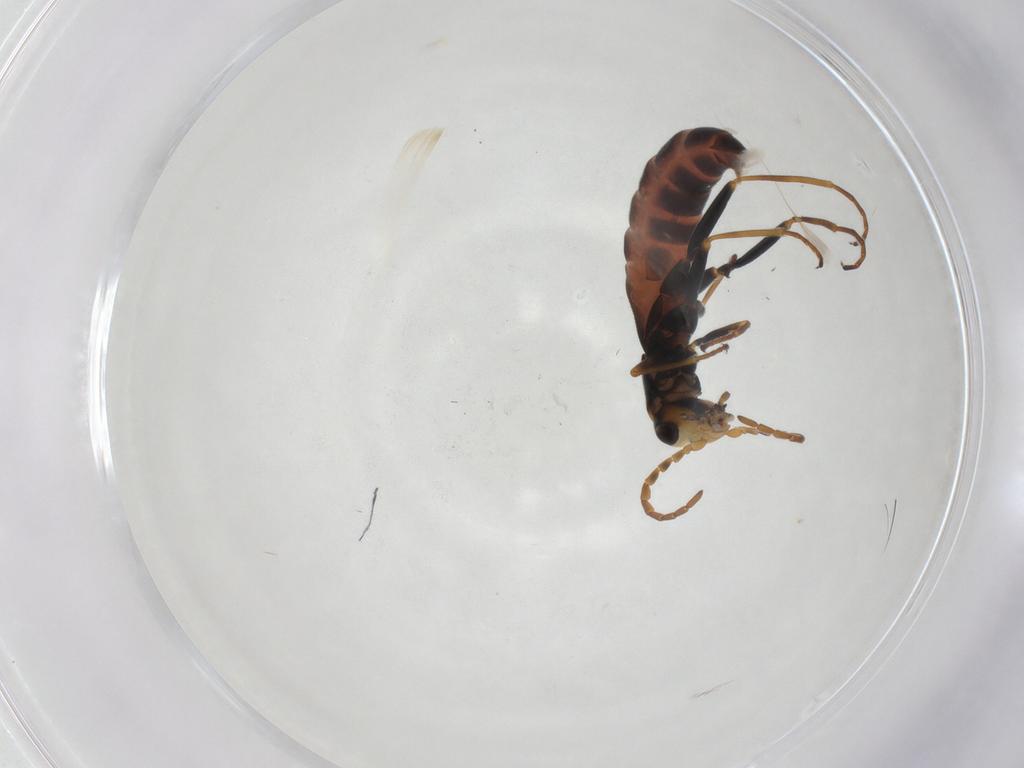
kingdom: Animalia
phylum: Arthropoda
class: Insecta
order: Coleoptera
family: Melyridae
